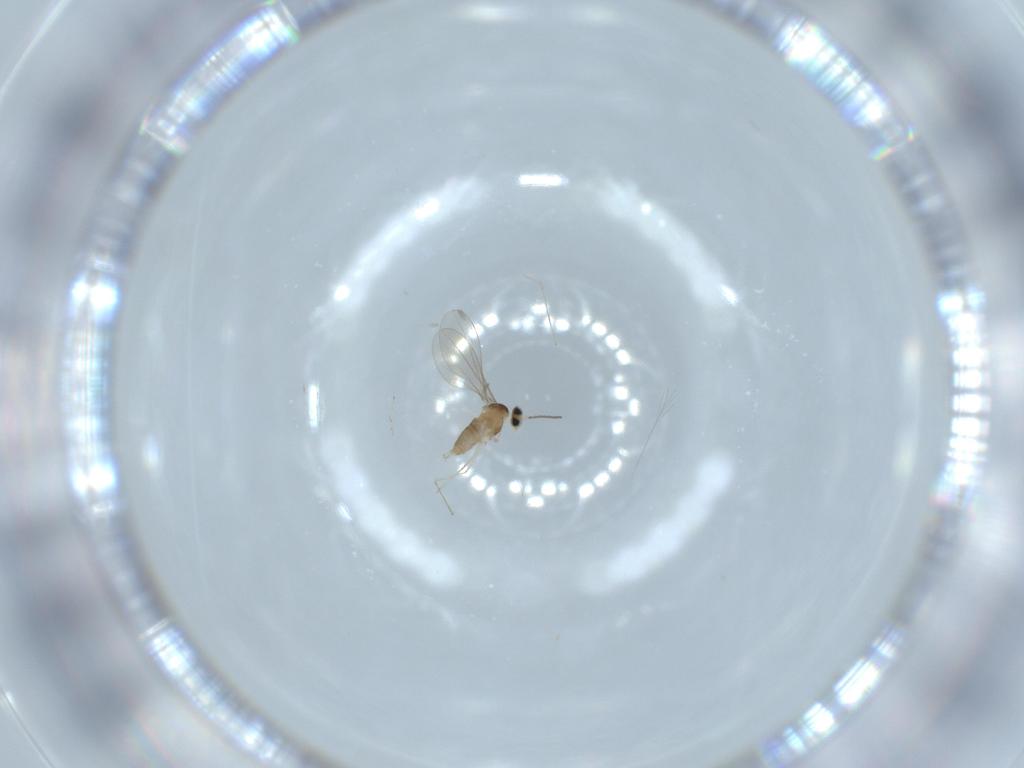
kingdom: Animalia
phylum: Arthropoda
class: Insecta
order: Diptera
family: Cecidomyiidae
